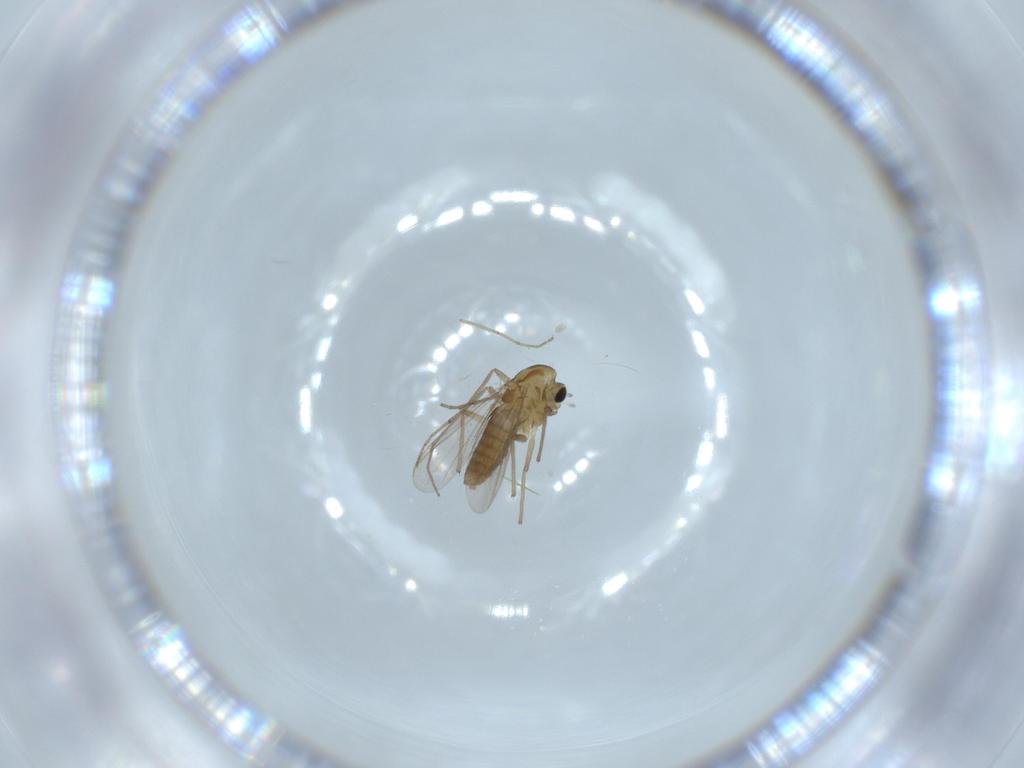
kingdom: Animalia
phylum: Arthropoda
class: Insecta
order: Diptera
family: Chironomidae
